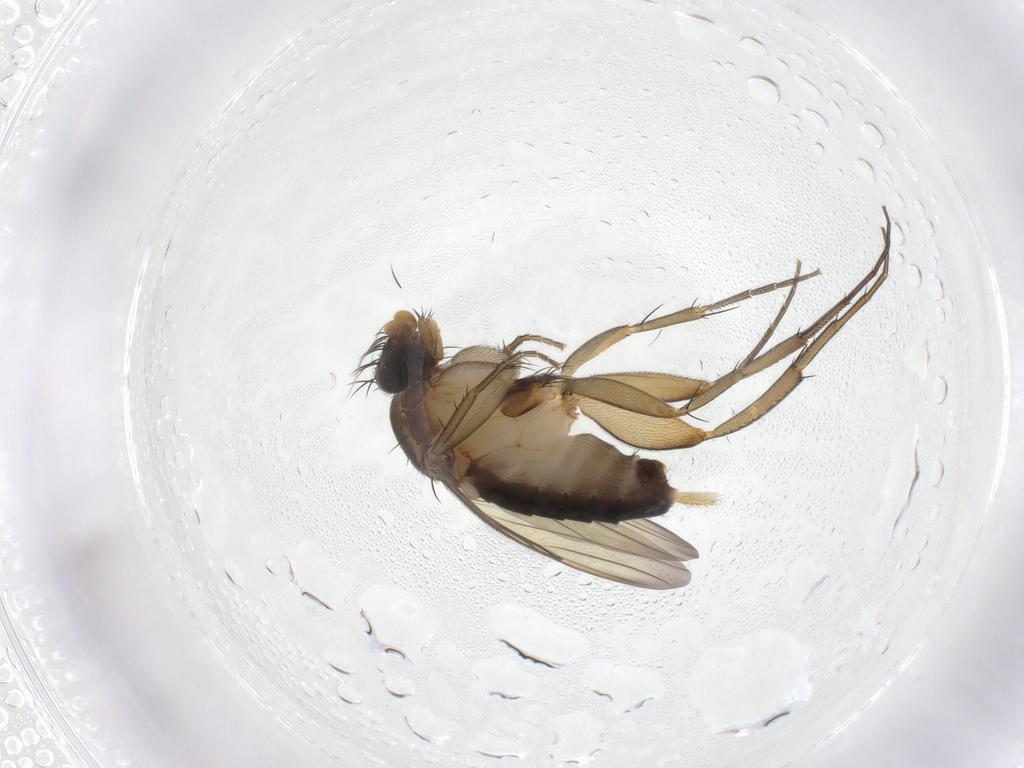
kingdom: Animalia
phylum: Arthropoda
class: Insecta
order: Diptera
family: Phoridae
